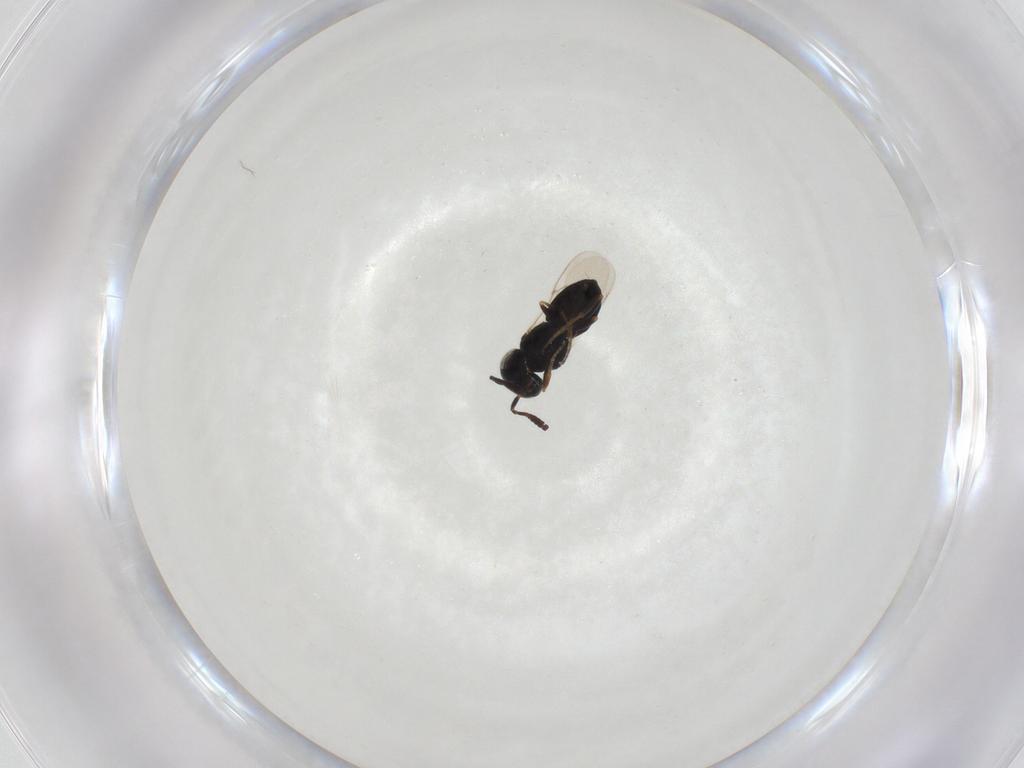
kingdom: Animalia
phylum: Arthropoda
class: Insecta
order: Hymenoptera
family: Scelionidae
